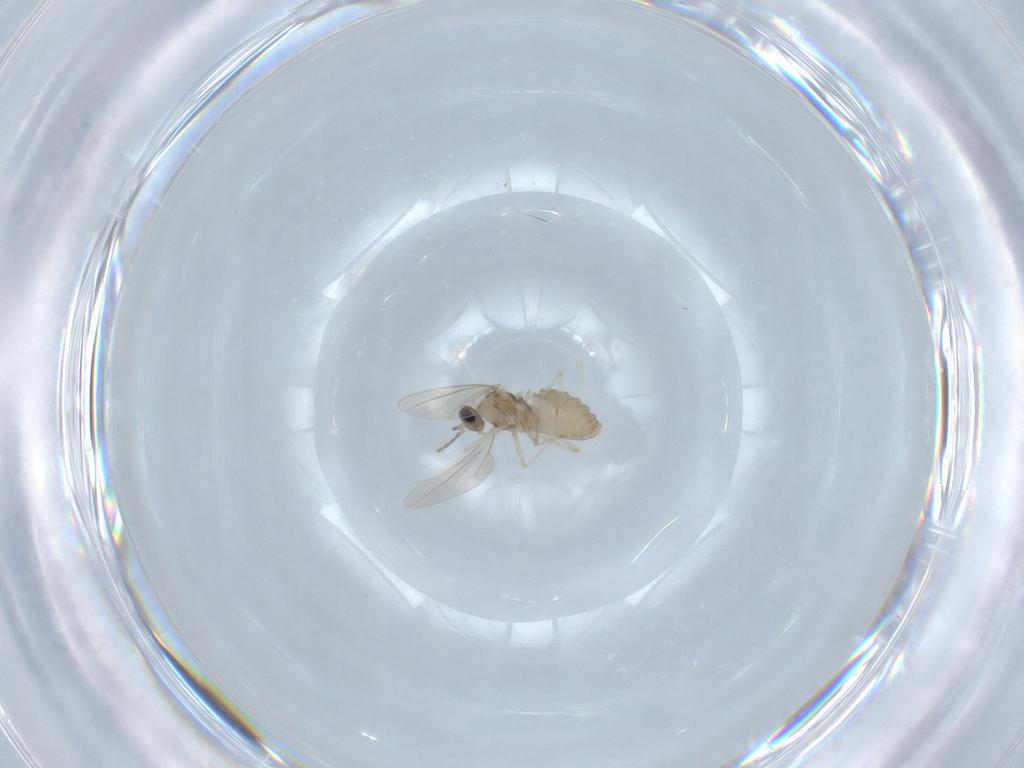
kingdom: Animalia
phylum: Arthropoda
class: Insecta
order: Diptera
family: Cecidomyiidae
